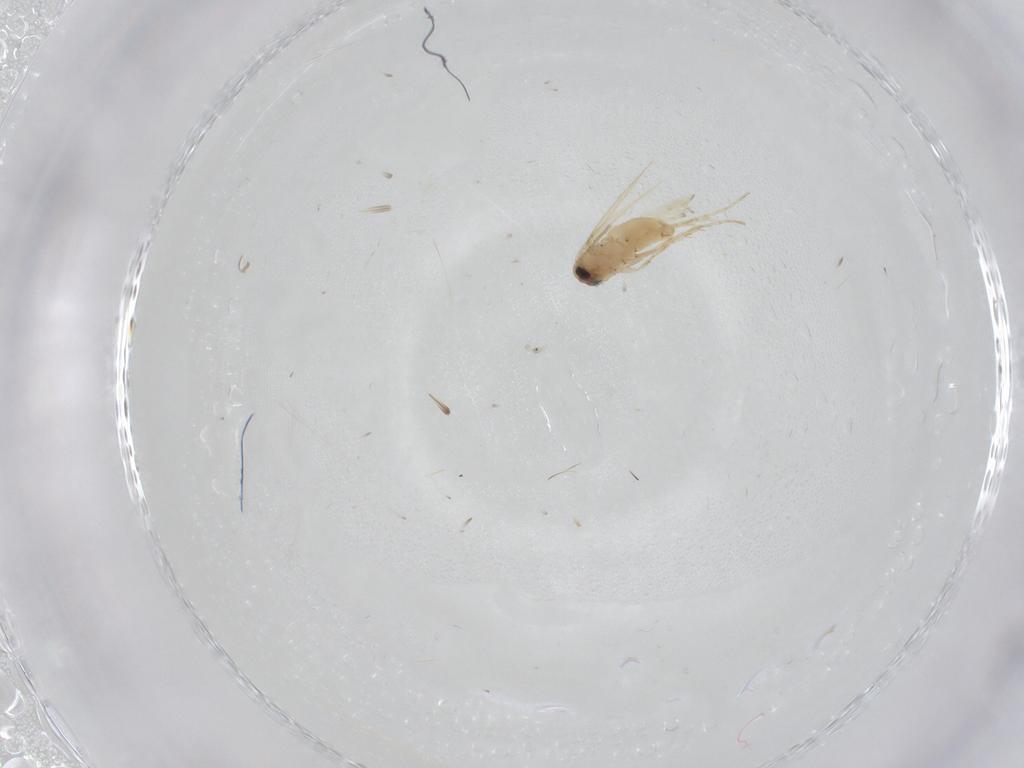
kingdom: Animalia
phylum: Arthropoda
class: Insecta
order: Lepidoptera
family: Crambidae
